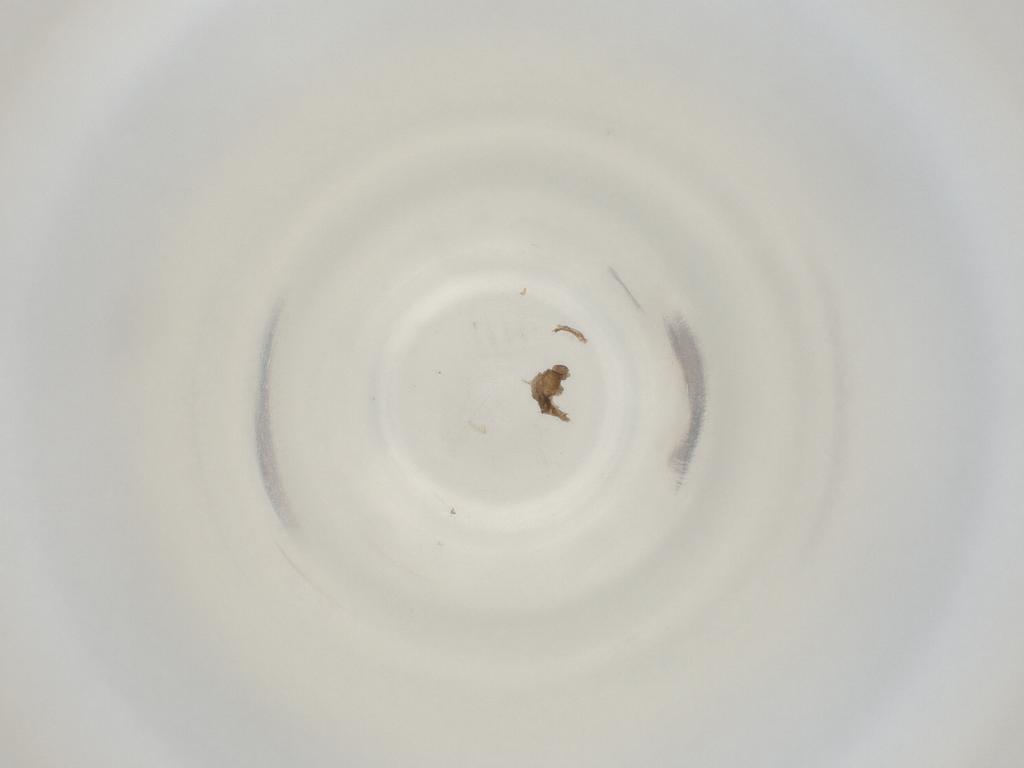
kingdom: Animalia
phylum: Arthropoda
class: Insecta
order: Diptera
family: Cecidomyiidae
